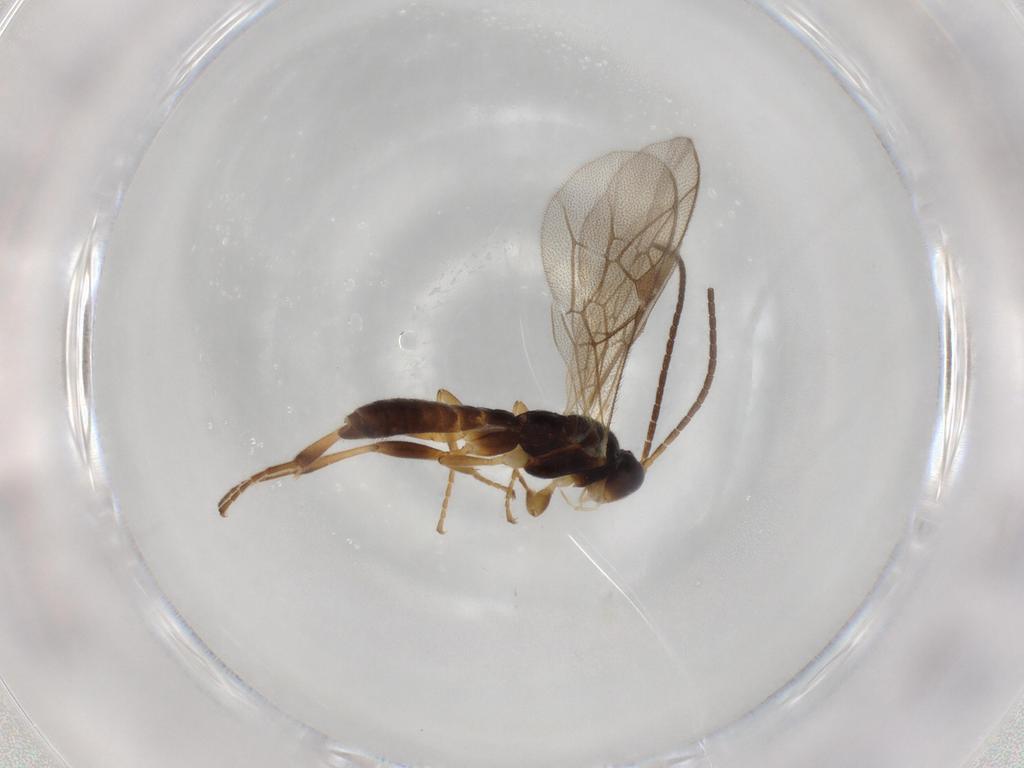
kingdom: Animalia
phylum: Arthropoda
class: Insecta
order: Hymenoptera
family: Ichneumonidae
